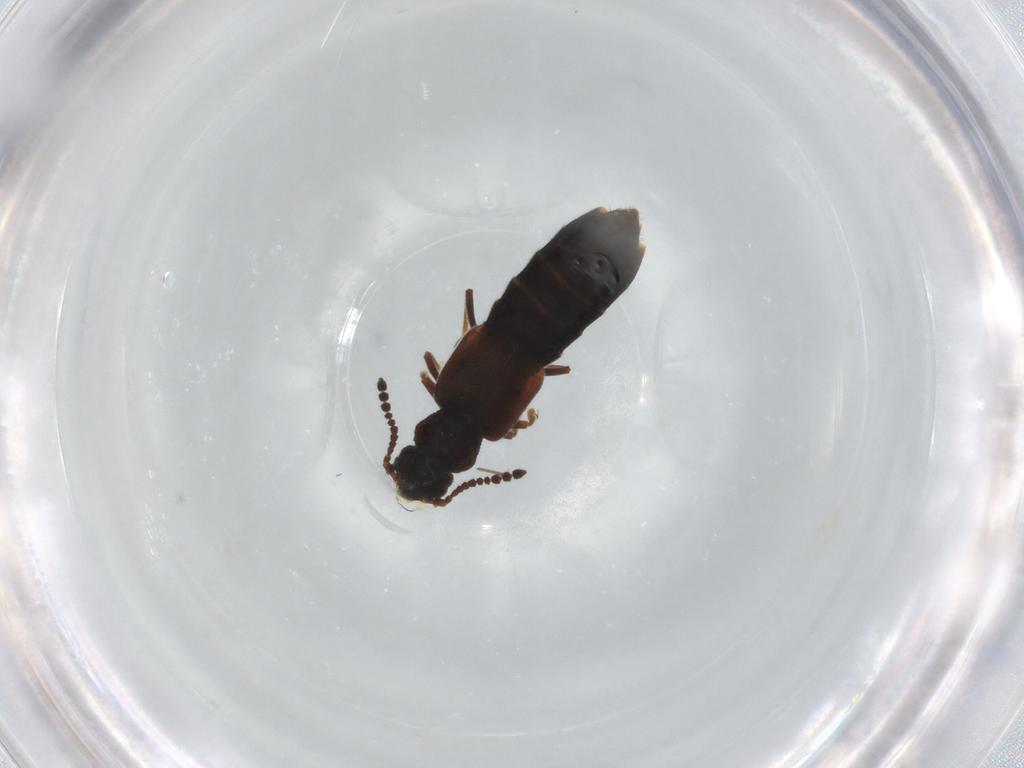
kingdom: Animalia
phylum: Arthropoda
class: Insecta
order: Coleoptera
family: Staphylinidae
